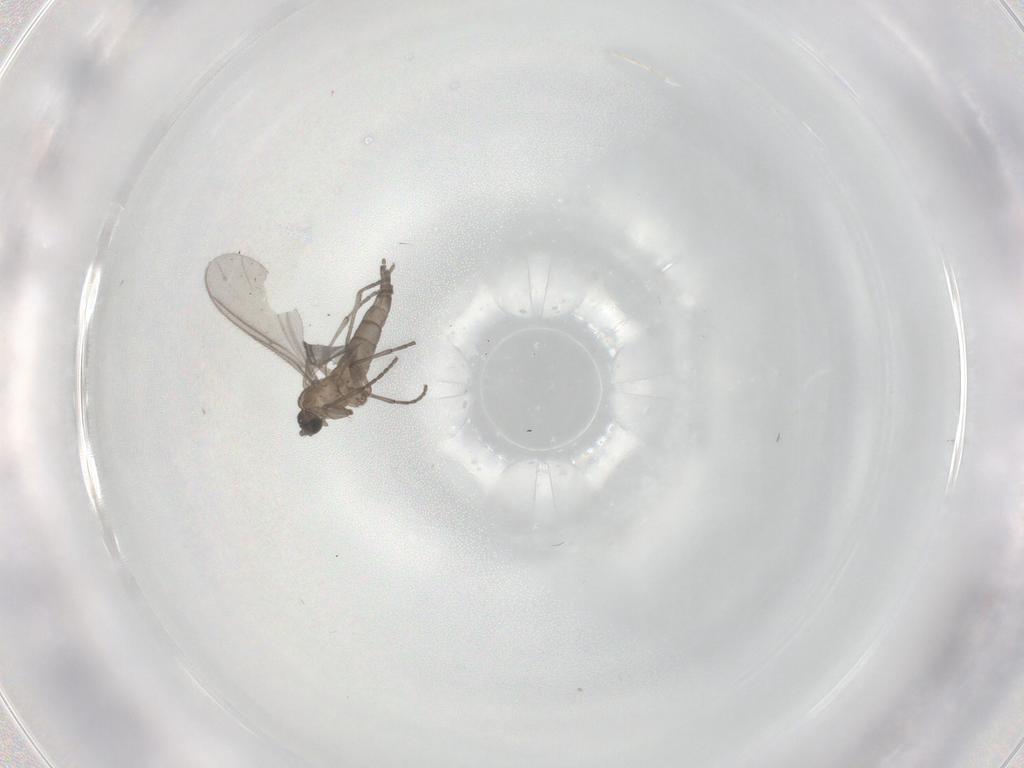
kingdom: Animalia
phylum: Arthropoda
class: Insecta
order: Diptera
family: Sciaridae
